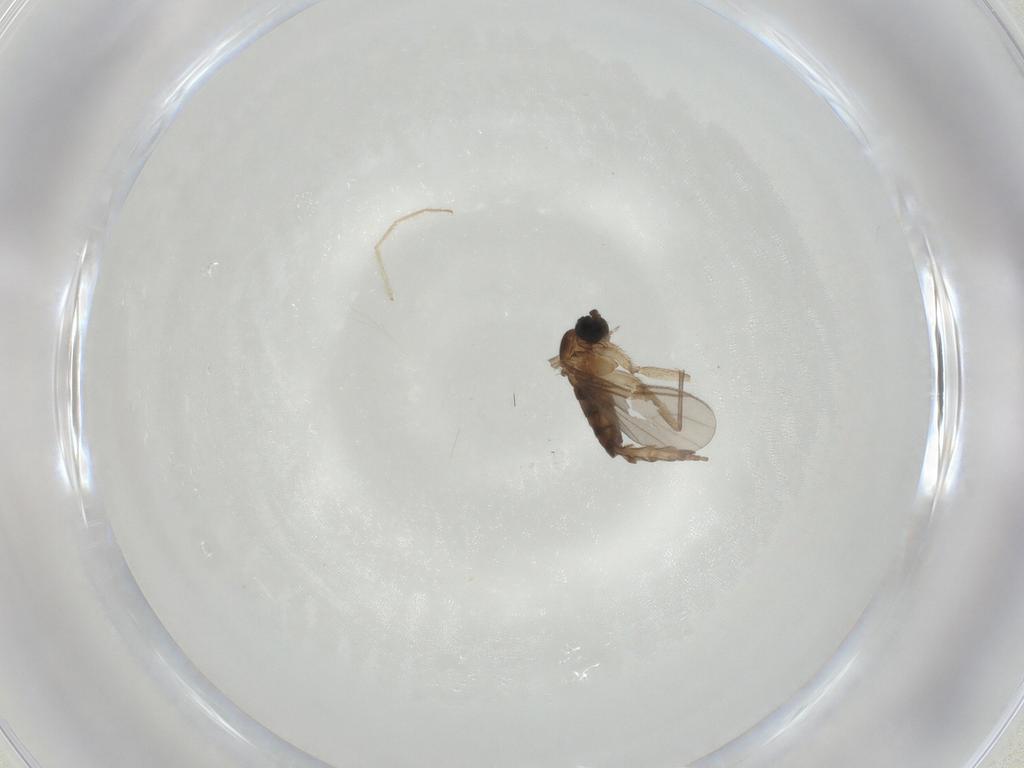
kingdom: Animalia
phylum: Arthropoda
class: Insecta
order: Diptera
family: Sciaridae
